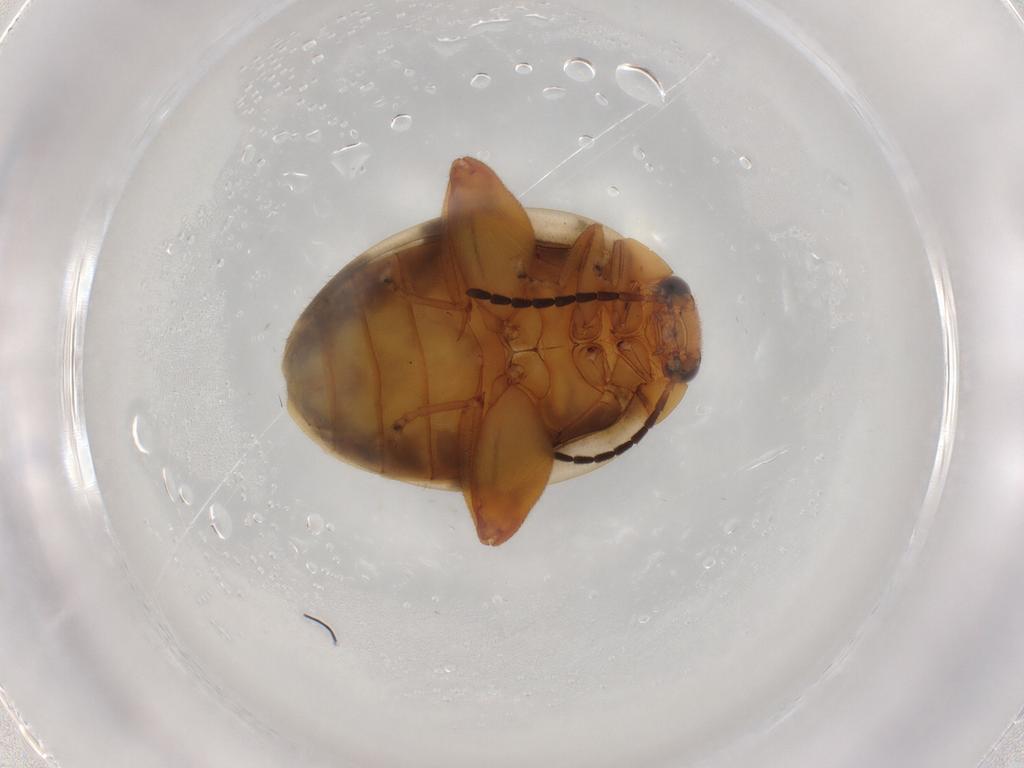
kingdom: Animalia
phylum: Arthropoda
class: Insecta
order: Coleoptera
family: Scirtidae
